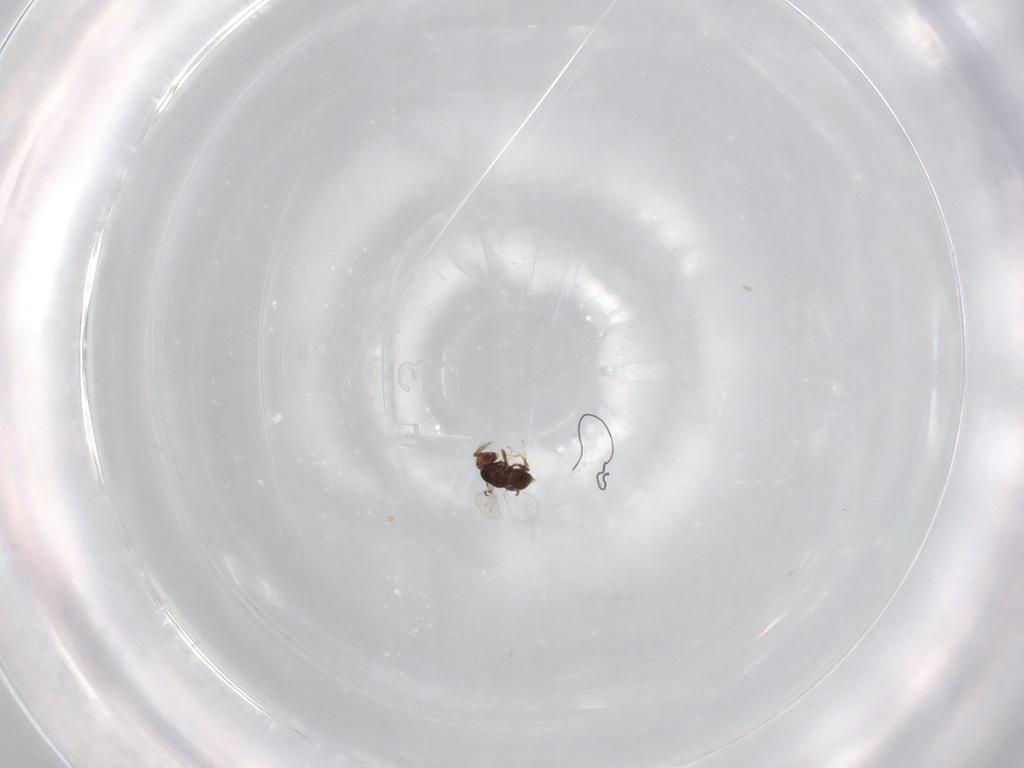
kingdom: Animalia
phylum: Arthropoda
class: Insecta
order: Hymenoptera
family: Trichogrammatidae
